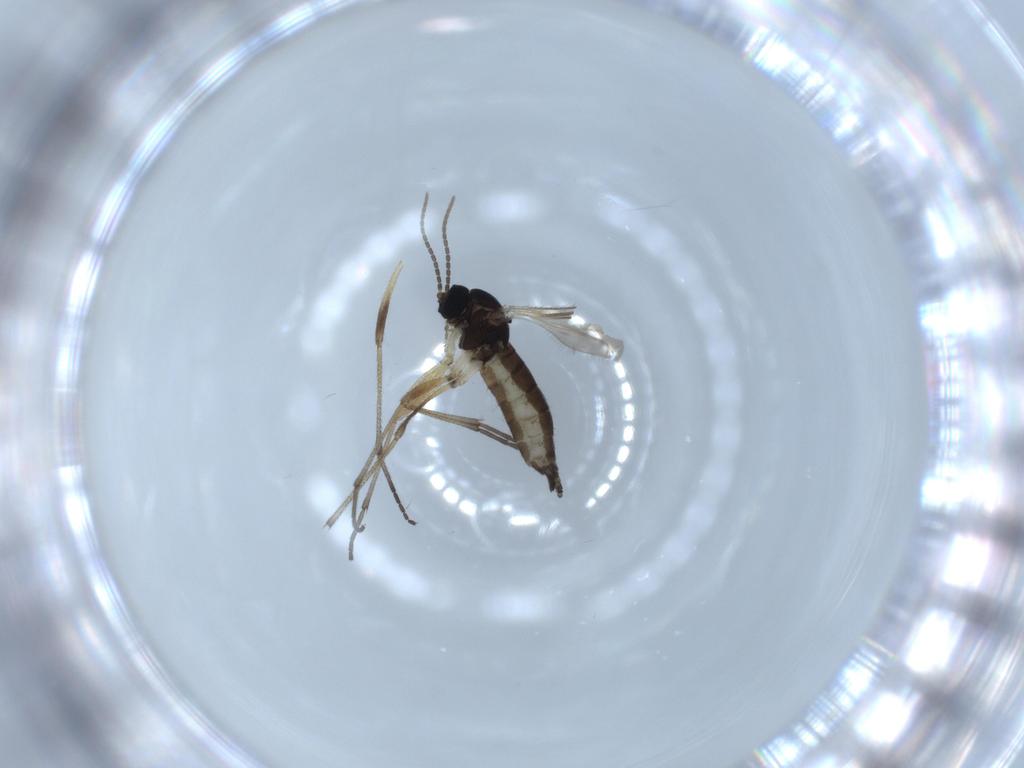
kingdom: Animalia
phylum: Arthropoda
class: Insecta
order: Diptera
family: Sciaridae
